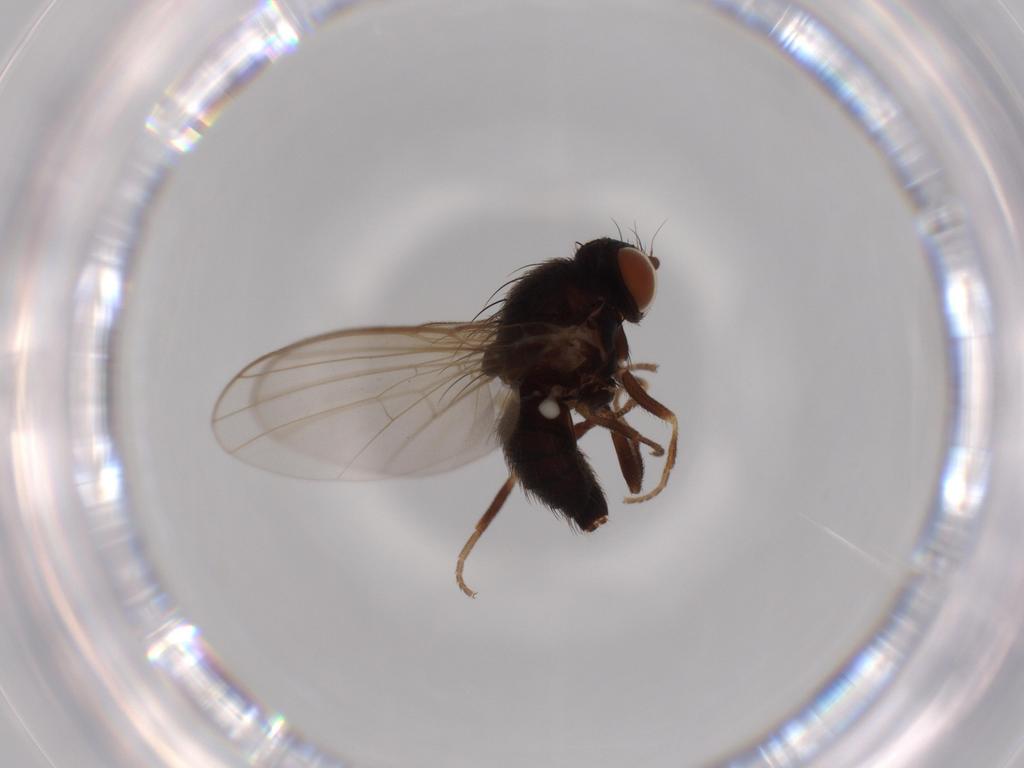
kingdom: Animalia
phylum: Arthropoda
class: Insecta
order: Diptera
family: Agromyzidae
